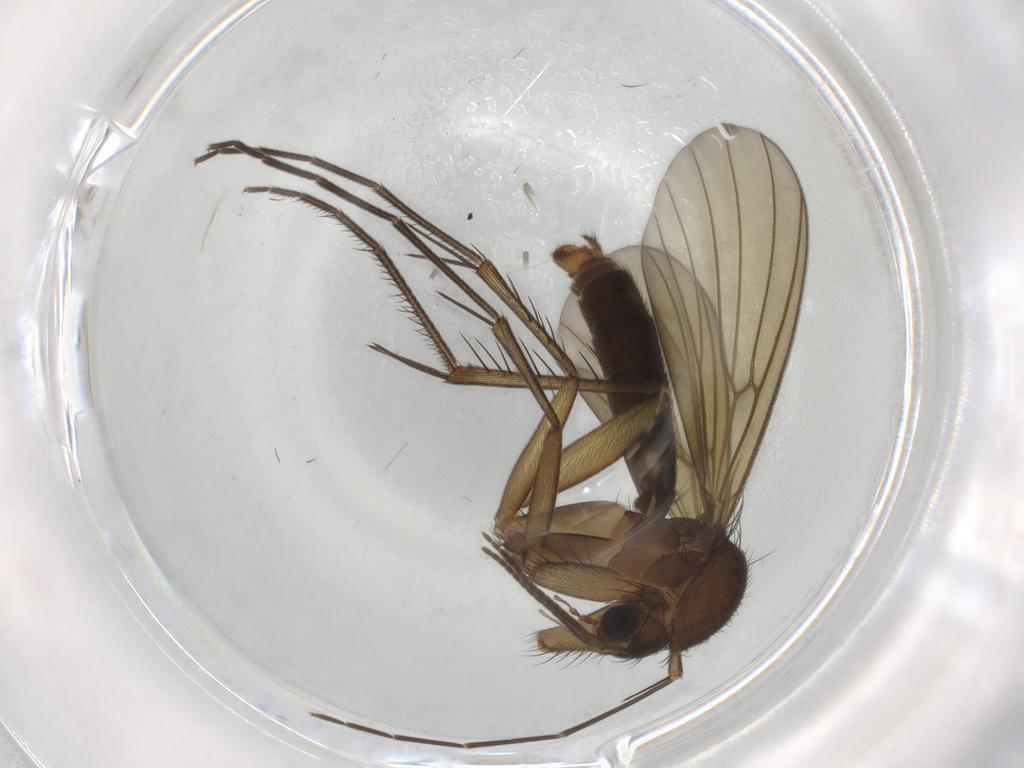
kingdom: Animalia
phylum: Arthropoda
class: Insecta
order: Diptera
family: Mycetophilidae
